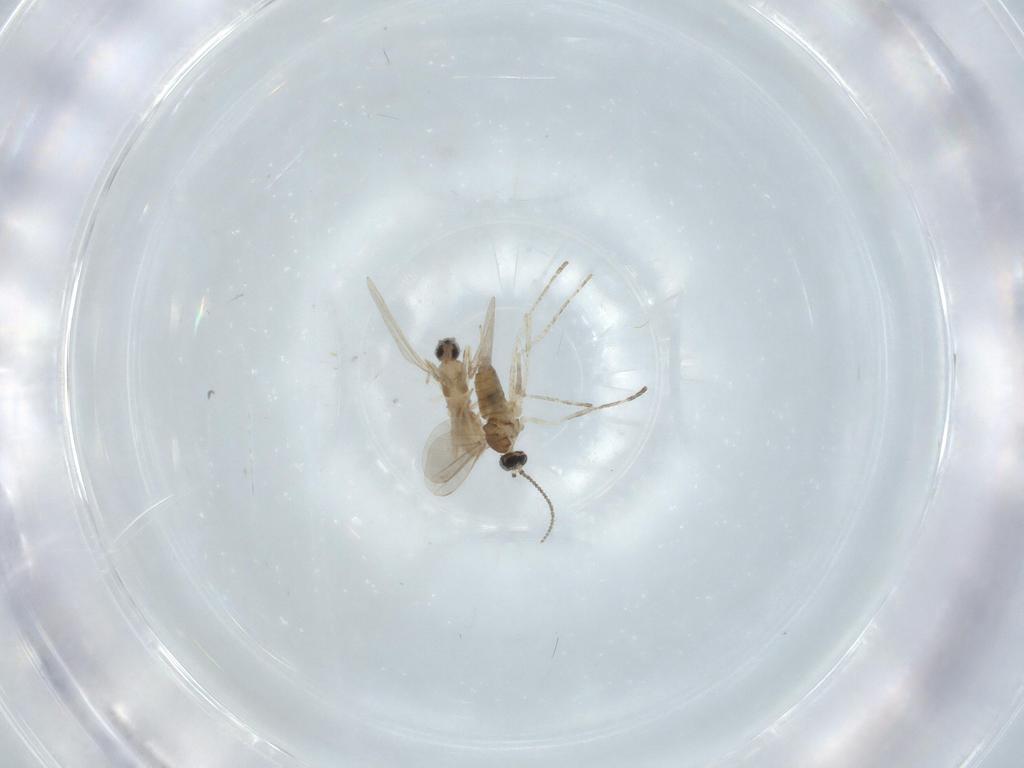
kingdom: Animalia
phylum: Arthropoda
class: Insecta
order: Diptera
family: Cecidomyiidae
